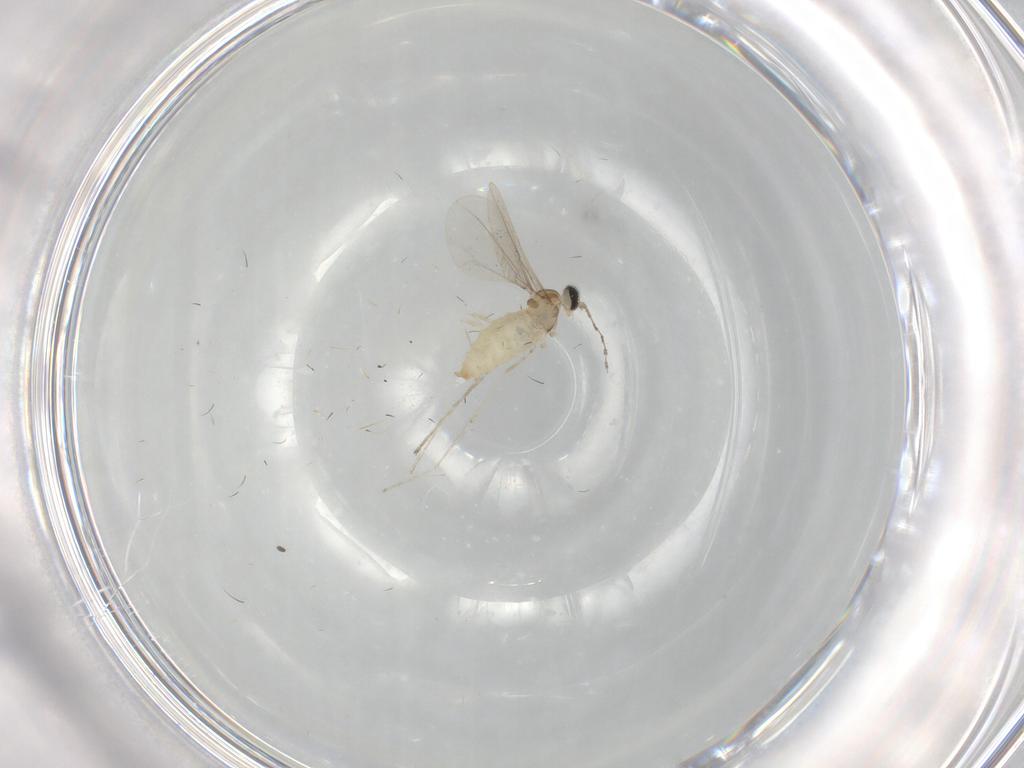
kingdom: Animalia
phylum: Arthropoda
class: Insecta
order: Diptera
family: Cecidomyiidae
